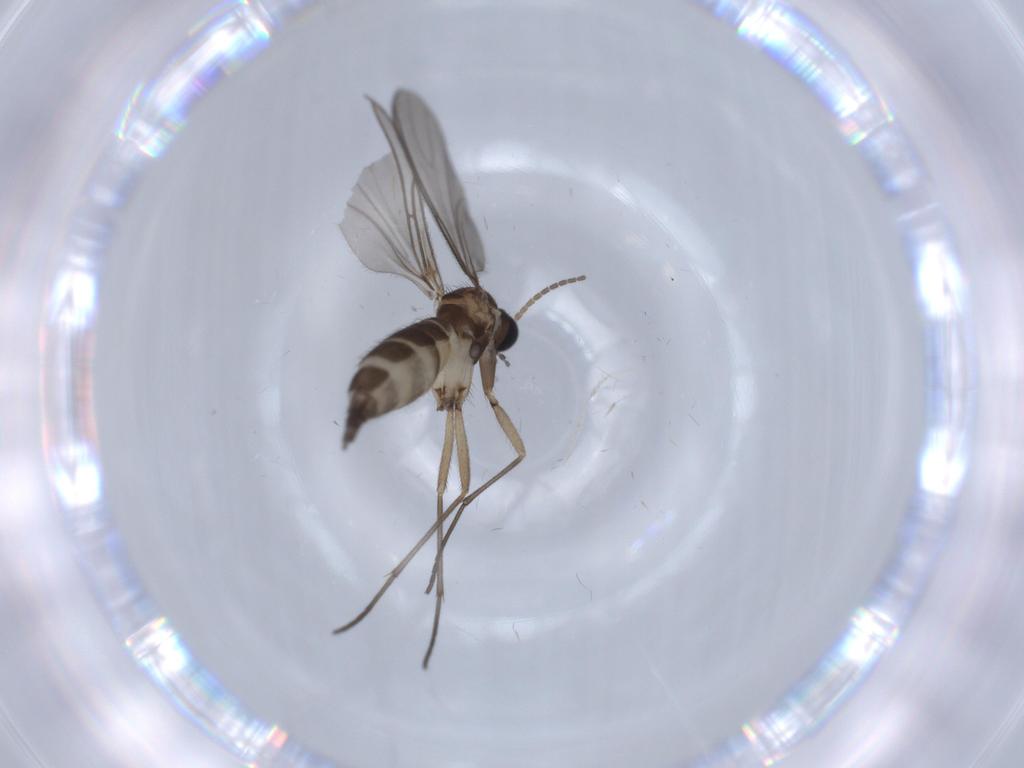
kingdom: Animalia
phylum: Arthropoda
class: Insecta
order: Diptera
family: Sciaridae
